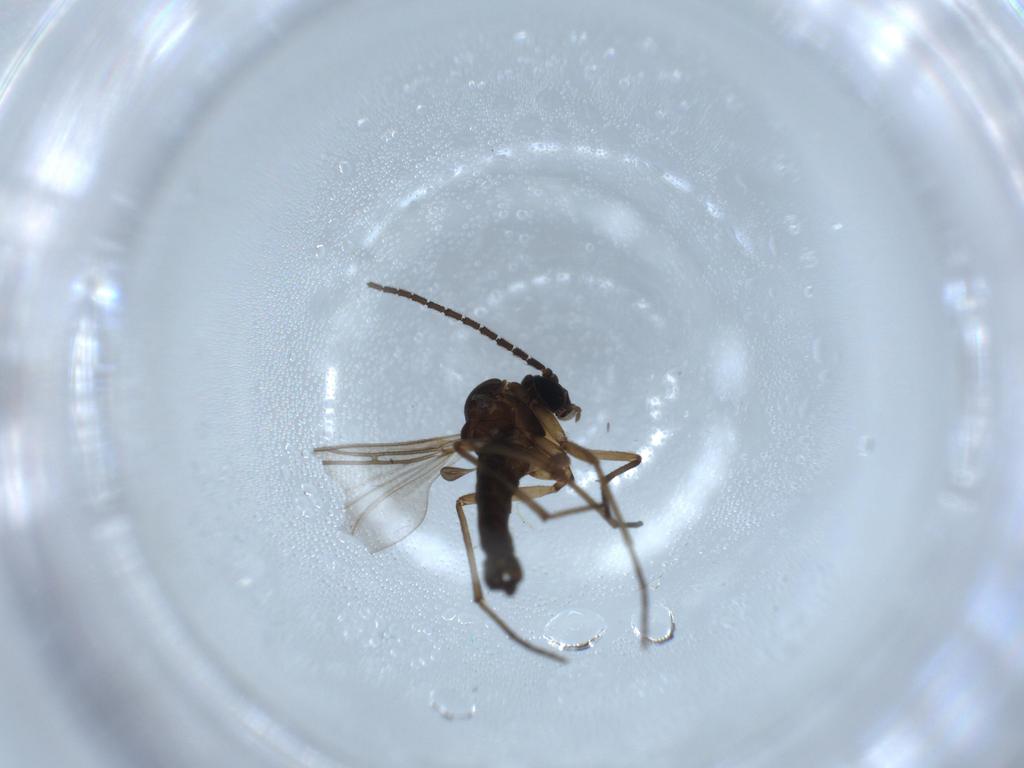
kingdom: Animalia
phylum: Arthropoda
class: Insecta
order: Diptera
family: Sciaridae
